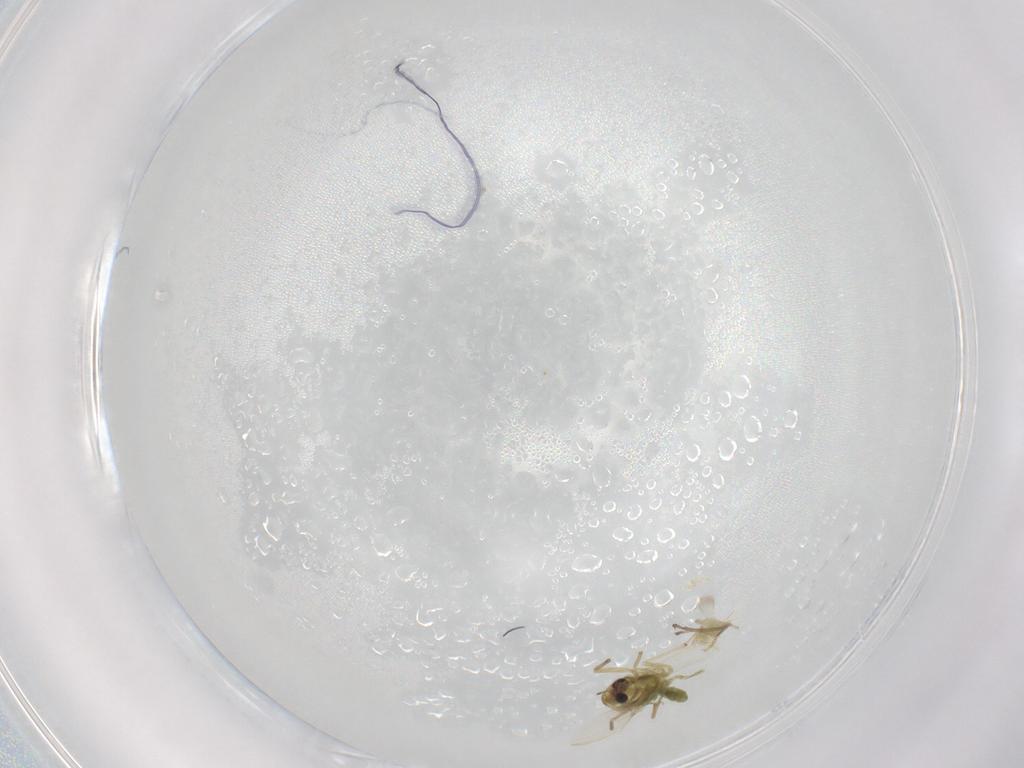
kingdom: Animalia
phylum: Arthropoda
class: Insecta
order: Diptera
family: Chironomidae
